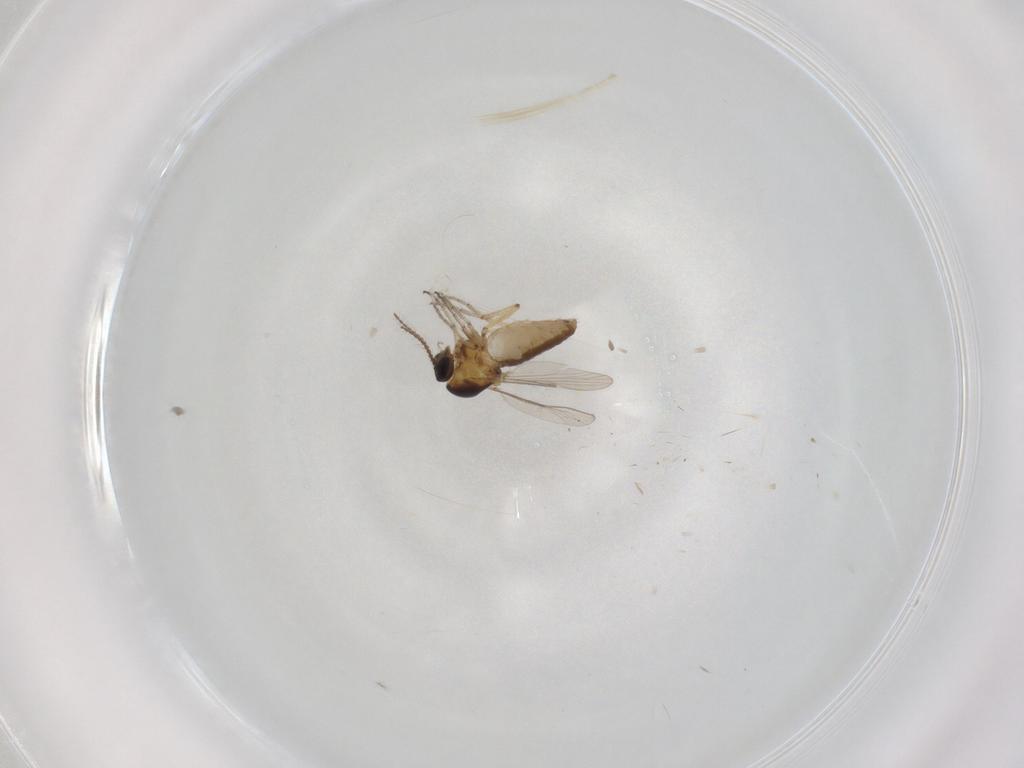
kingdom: Animalia
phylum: Arthropoda
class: Insecta
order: Diptera
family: Ceratopogonidae
